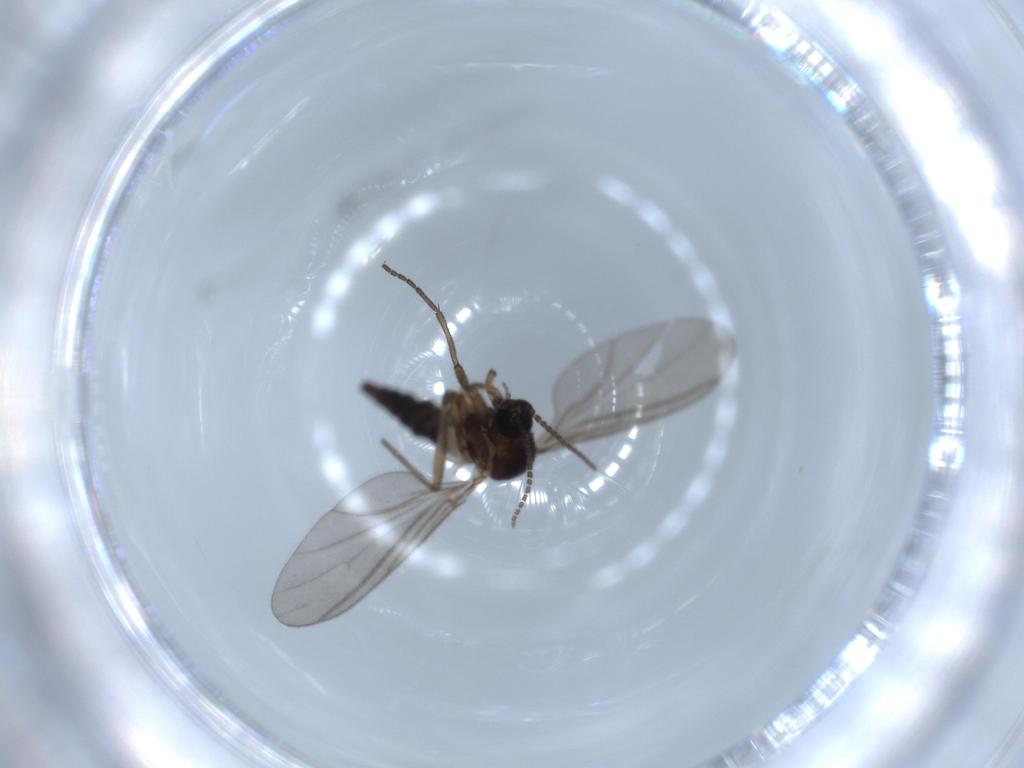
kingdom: Animalia
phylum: Arthropoda
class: Insecta
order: Diptera
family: Sciaridae
